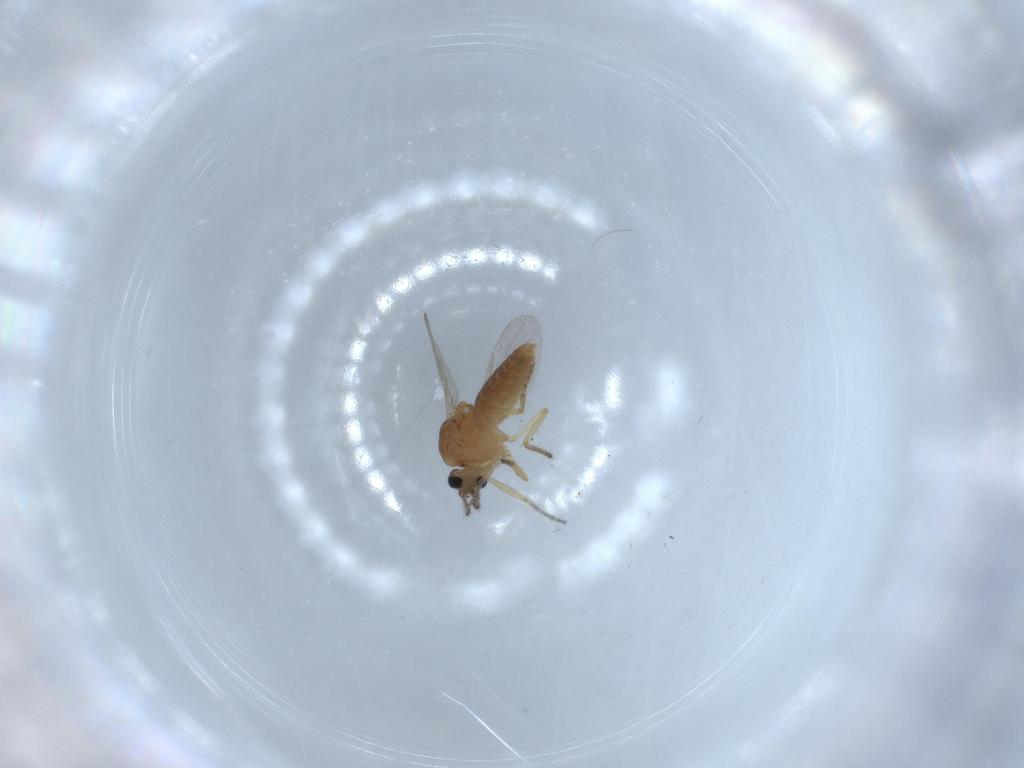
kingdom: Animalia
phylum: Arthropoda
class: Insecta
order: Diptera
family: Ceratopogonidae
